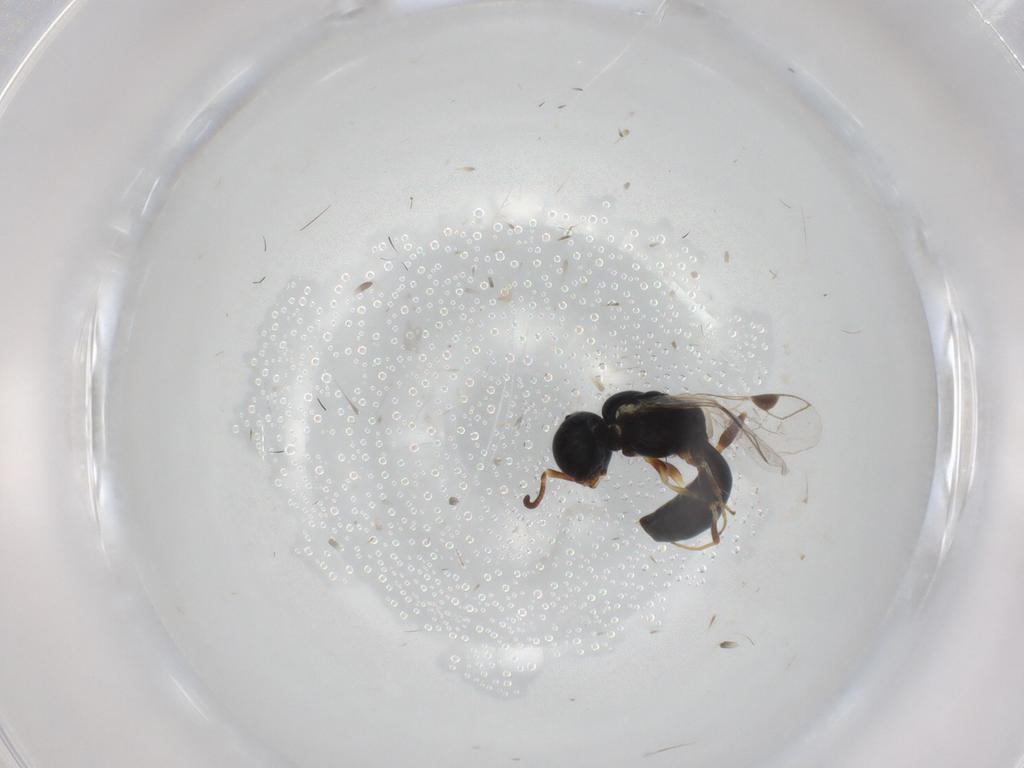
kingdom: Animalia
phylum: Arthropoda
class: Insecta
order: Hymenoptera
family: Pemphredonidae
